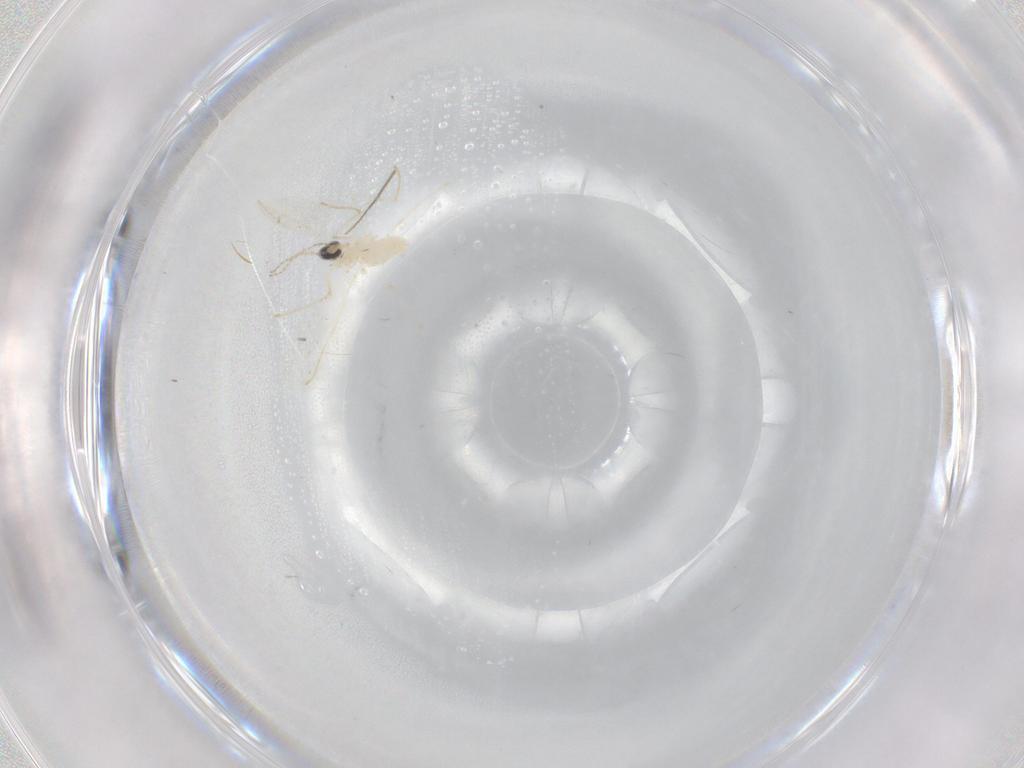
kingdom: Animalia
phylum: Arthropoda
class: Insecta
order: Diptera
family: Cecidomyiidae
